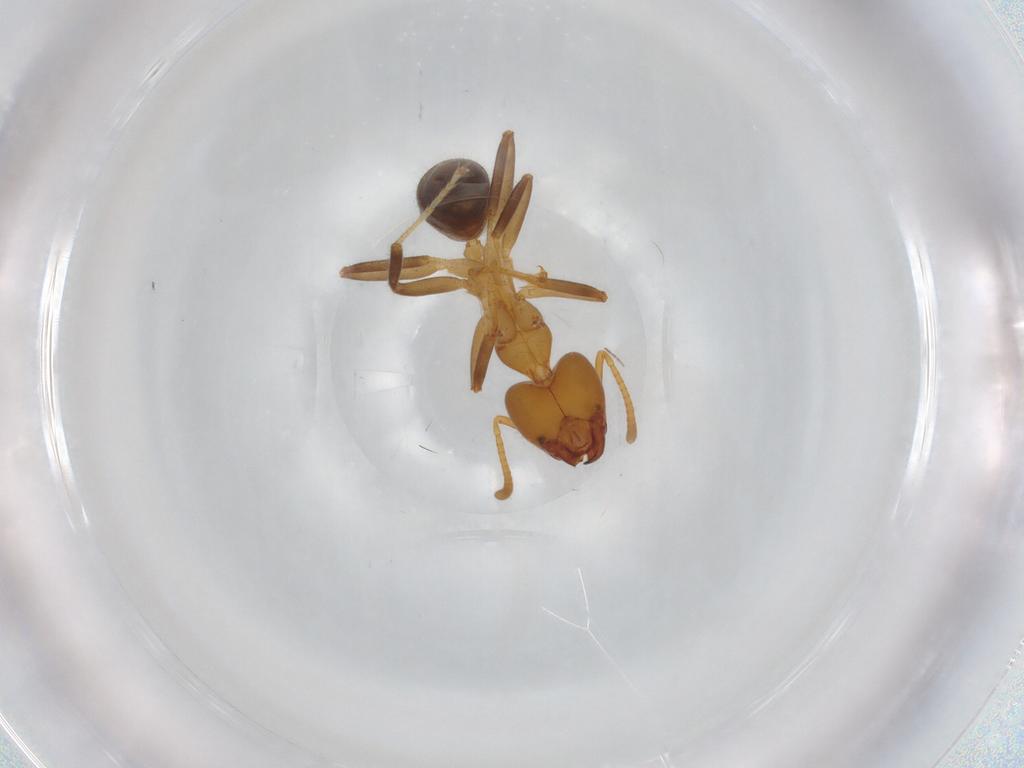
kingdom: Animalia
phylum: Arthropoda
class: Insecta
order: Hymenoptera
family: Formicidae
